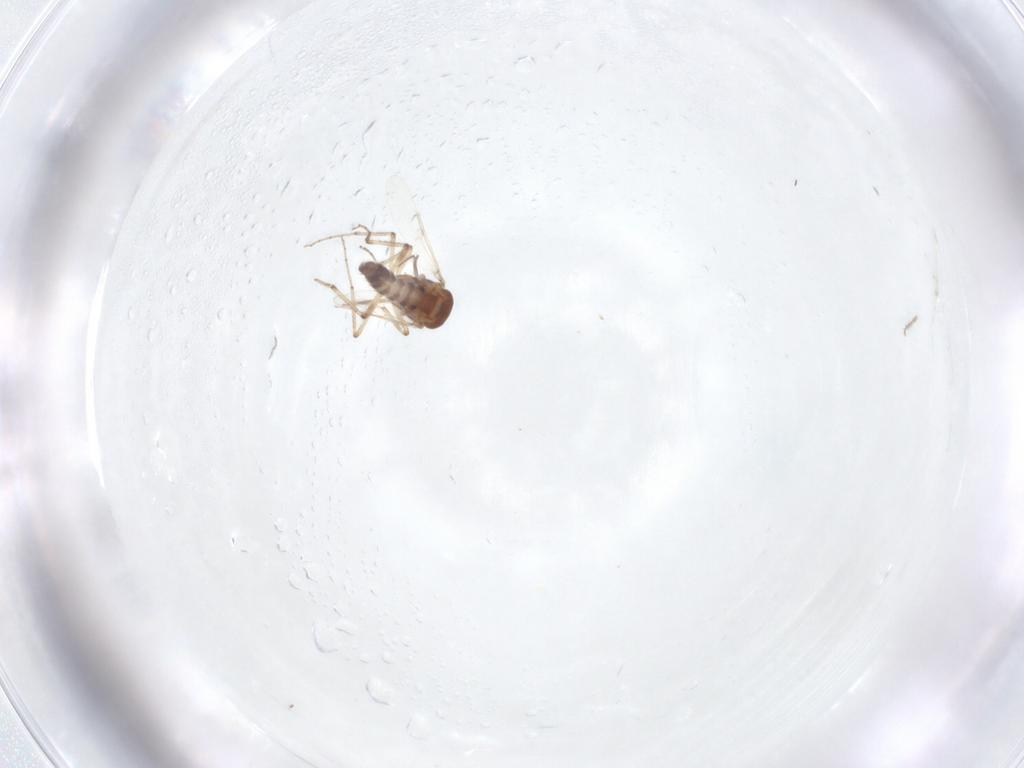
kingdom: Animalia
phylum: Arthropoda
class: Insecta
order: Diptera
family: Ceratopogonidae
